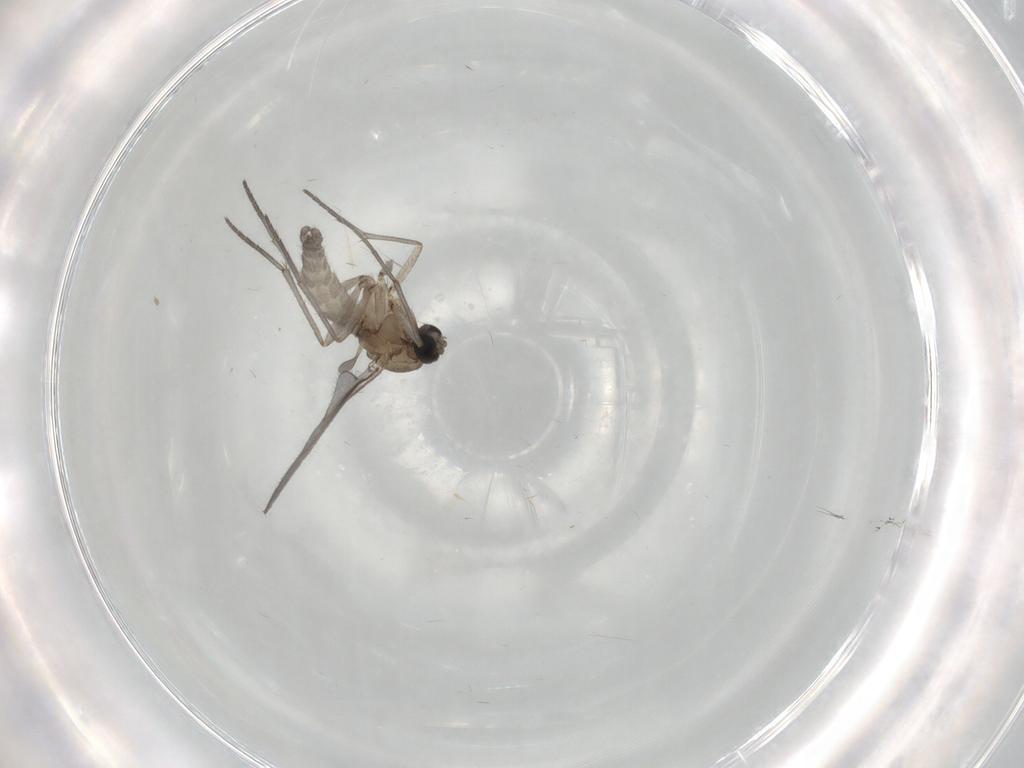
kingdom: Animalia
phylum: Arthropoda
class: Insecta
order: Diptera
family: Sciaridae
